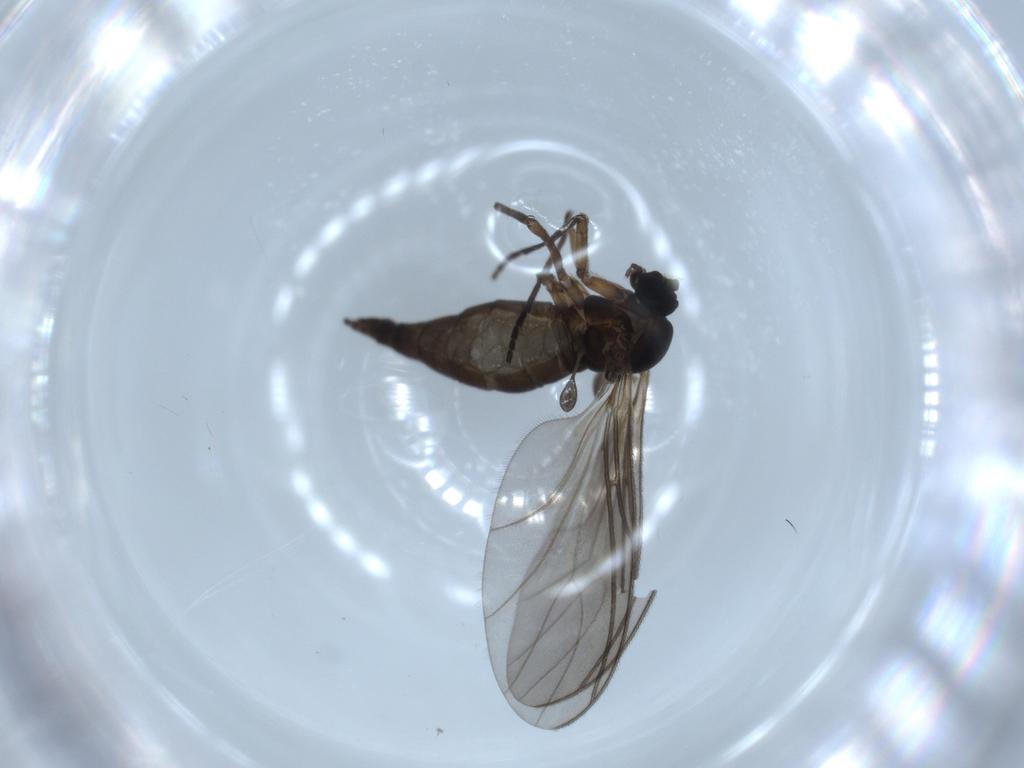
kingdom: Animalia
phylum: Arthropoda
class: Insecta
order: Diptera
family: Sciaridae
